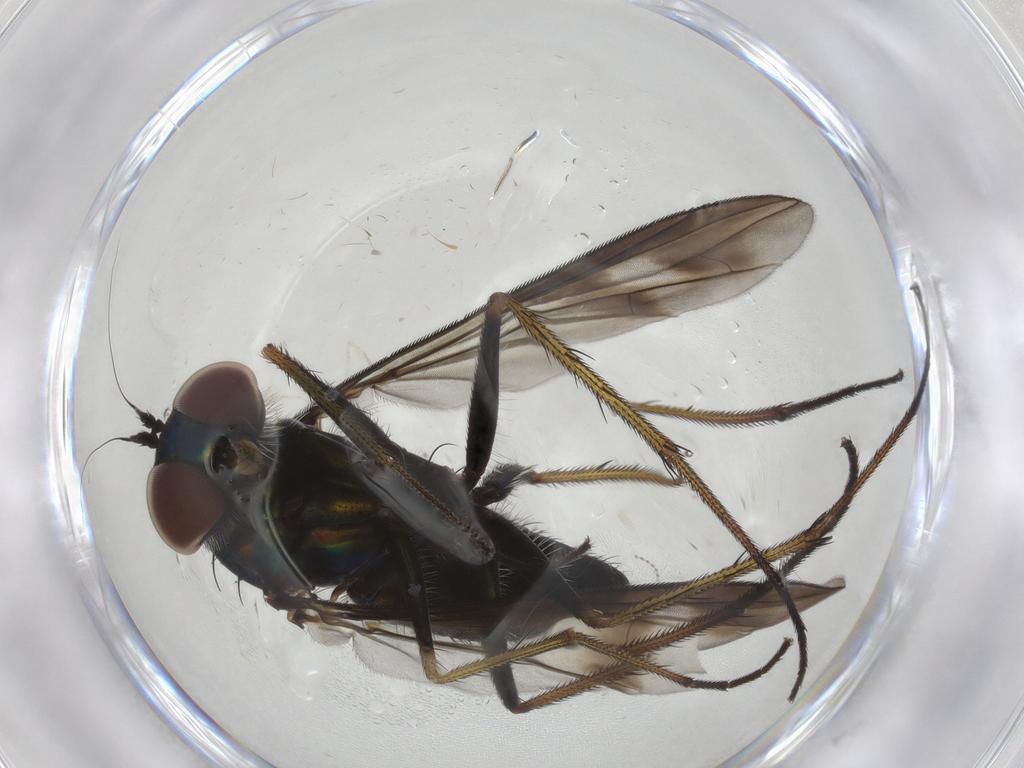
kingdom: Animalia
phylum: Arthropoda
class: Insecta
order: Diptera
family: Dolichopodidae
